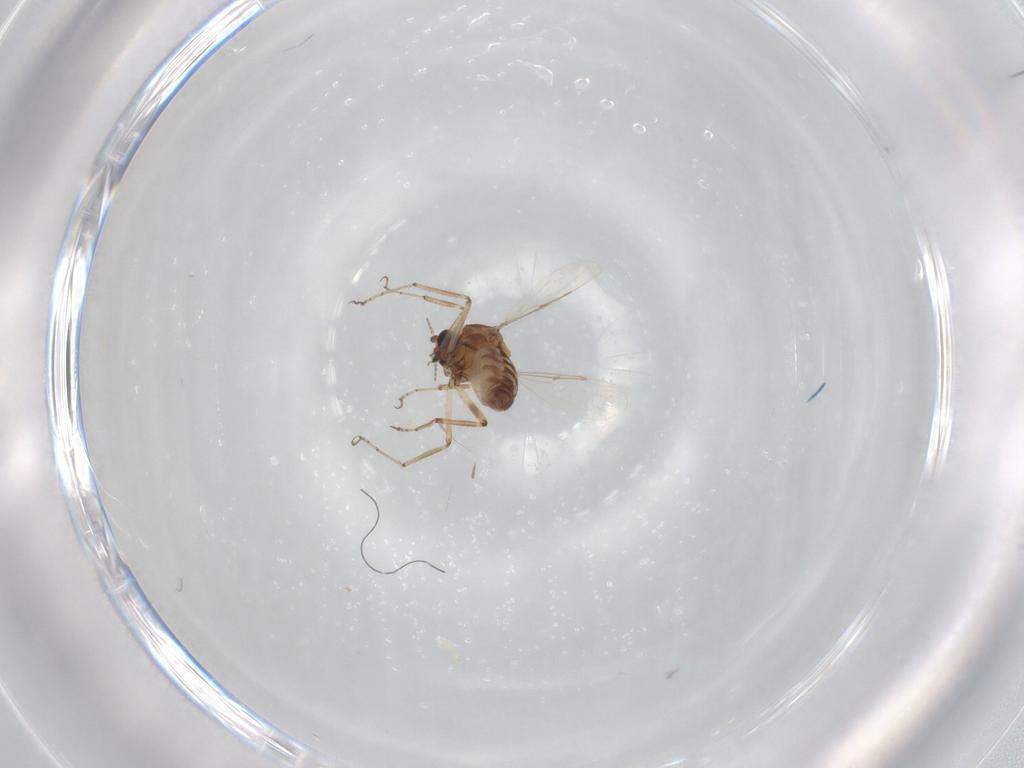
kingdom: Animalia
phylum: Arthropoda
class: Insecta
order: Diptera
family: Ceratopogonidae
